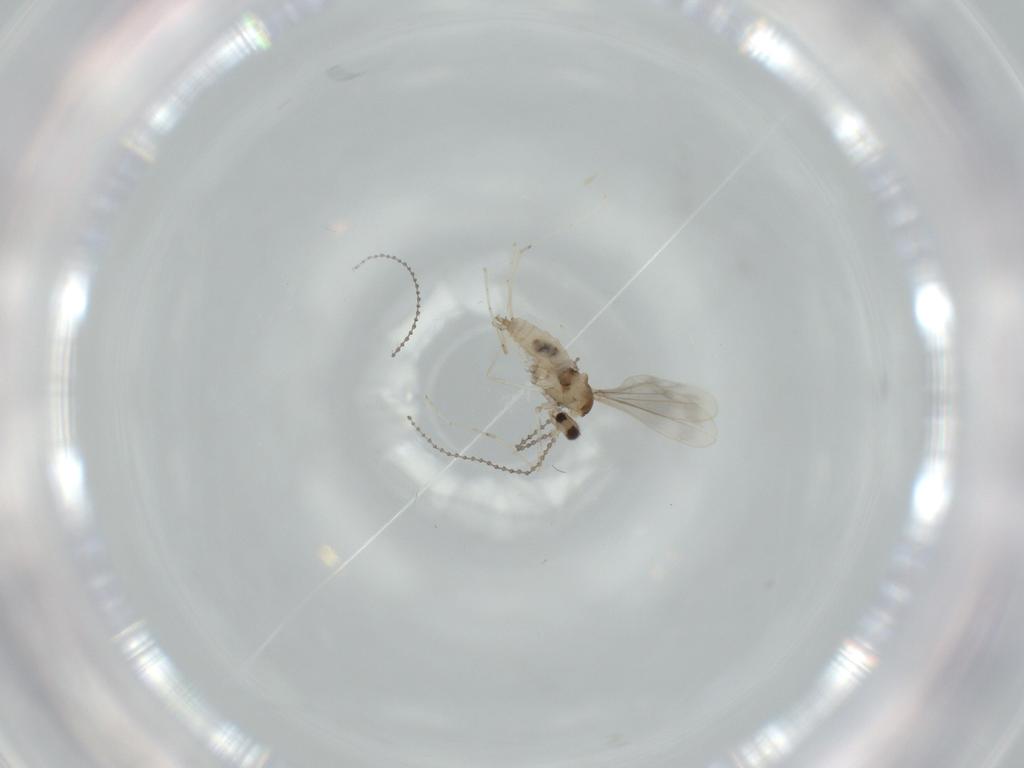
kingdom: Animalia
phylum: Arthropoda
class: Insecta
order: Diptera
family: Cecidomyiidae
